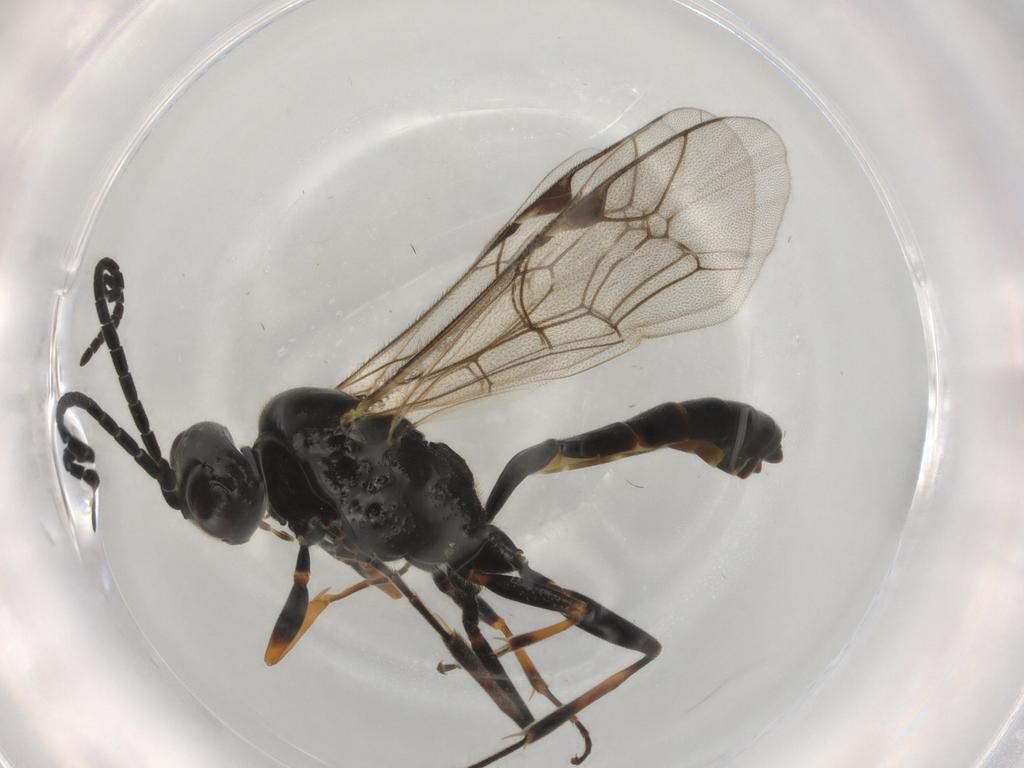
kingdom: Animalia
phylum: Arthropoda
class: Insecta
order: Hymenoptera
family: Ichneumonidae
